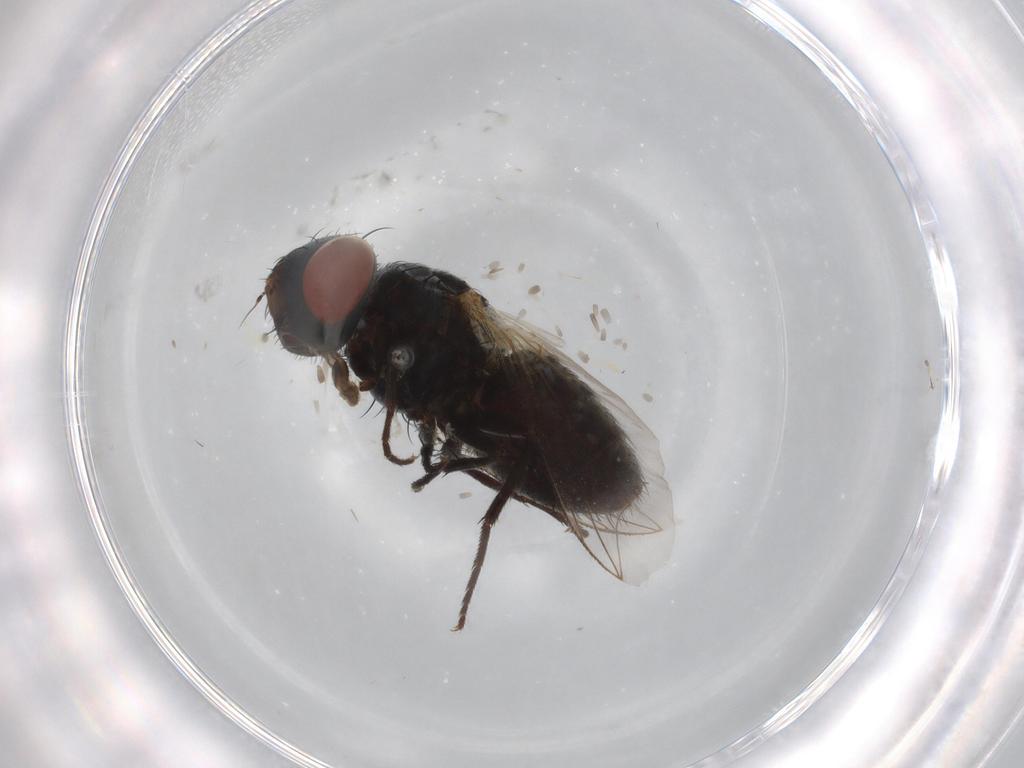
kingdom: Animalia
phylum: Arthropoda
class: Insecta
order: Diptera
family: Sarcophagidae
